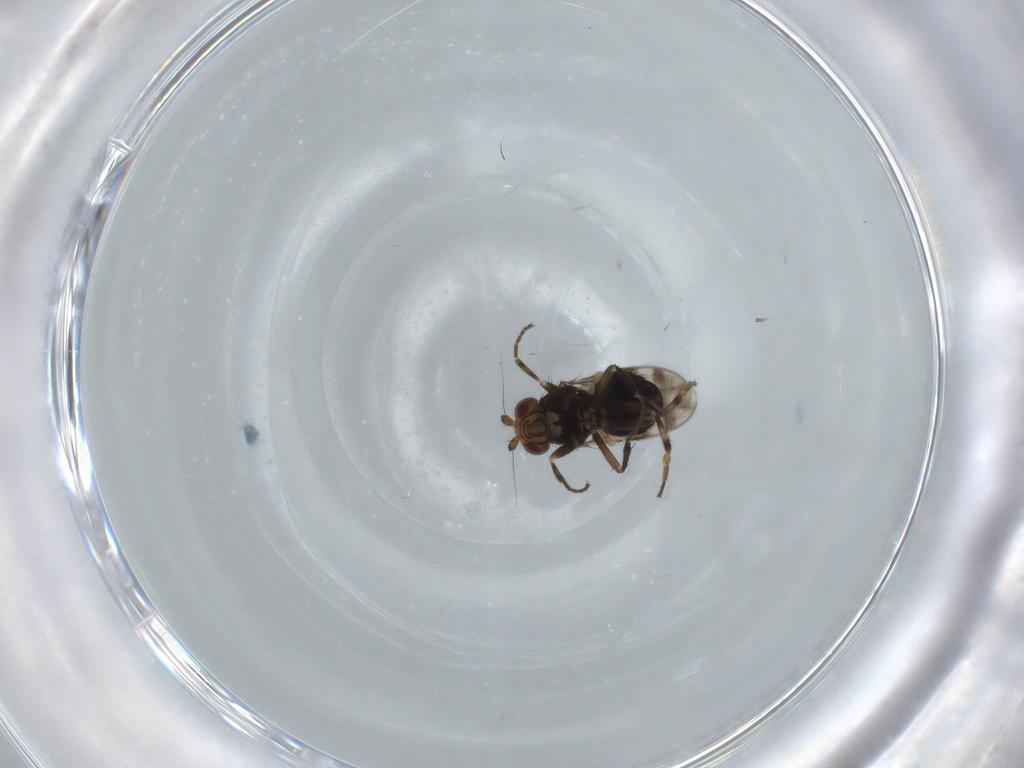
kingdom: Animalia
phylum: Arthropoda
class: Insecta
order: Diptera
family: Sphaeroceridae
